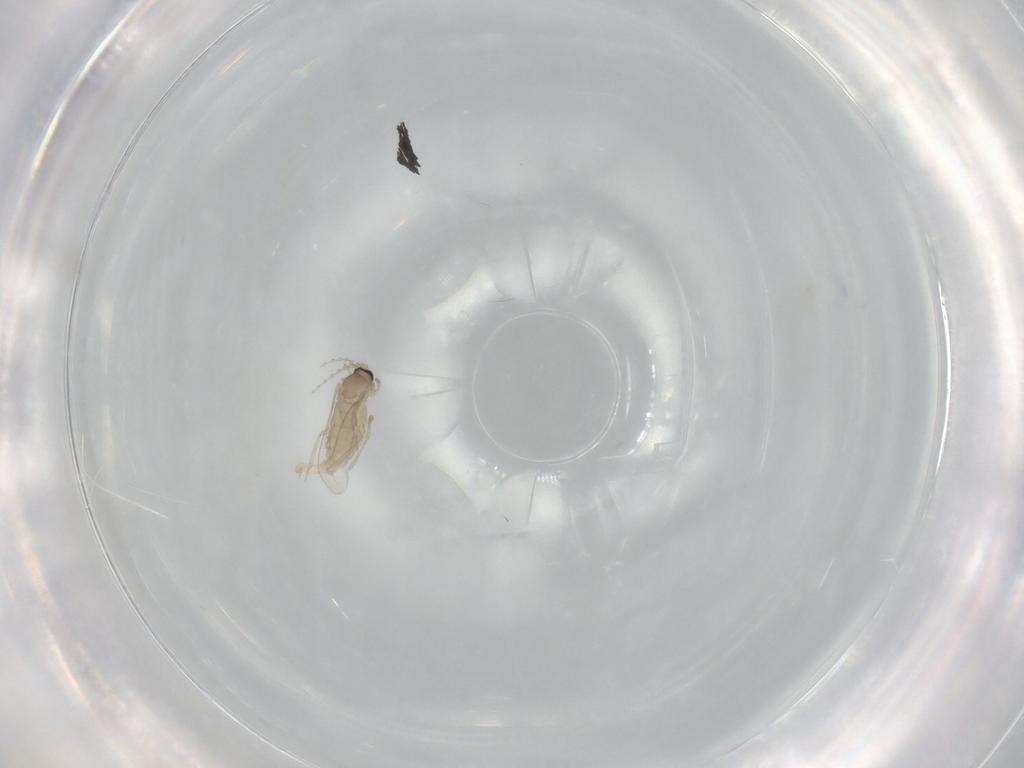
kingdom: Animalia
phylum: Arthropoda
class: Insecta
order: Diptera
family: Cecidomyiidae
